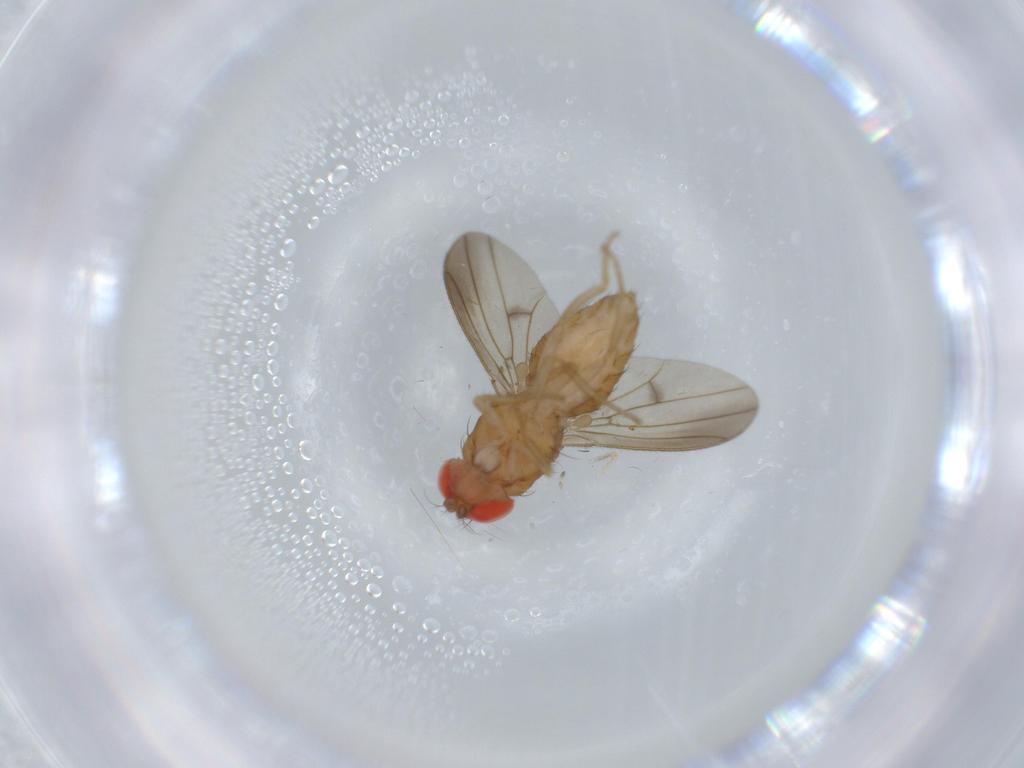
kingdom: Animalia
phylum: Arthropoda
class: Insecta
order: Diptera
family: Drosophilidae
